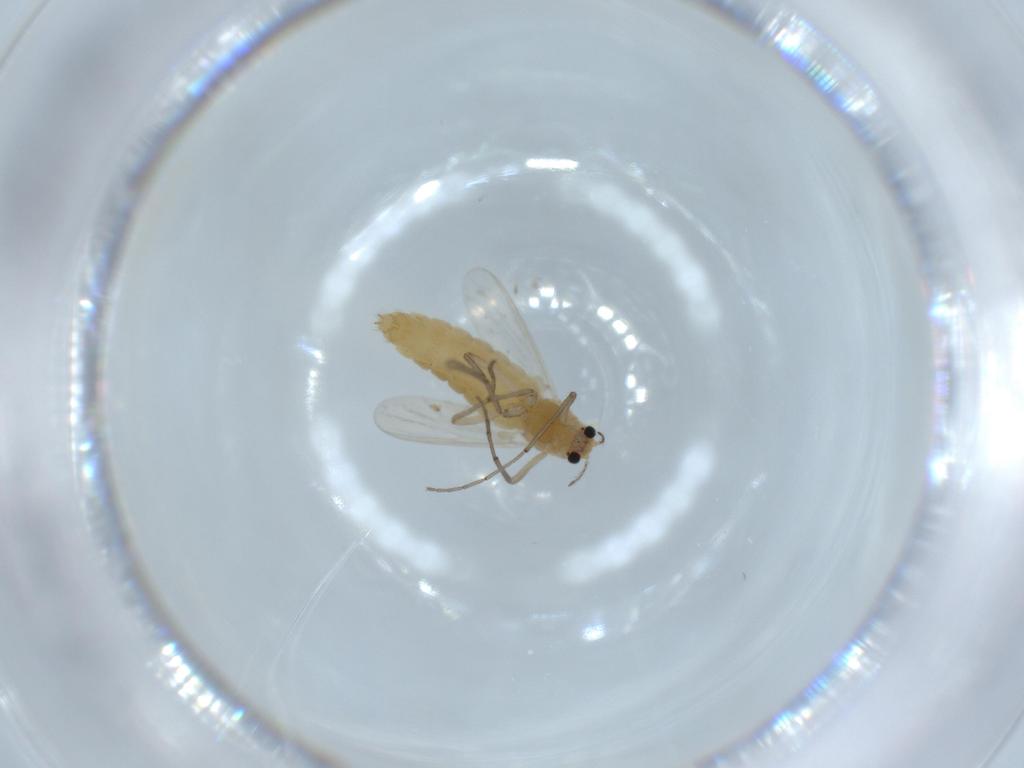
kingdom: Animalia
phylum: Arthropoda
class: Insecta
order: Diptera
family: Chironomidae
